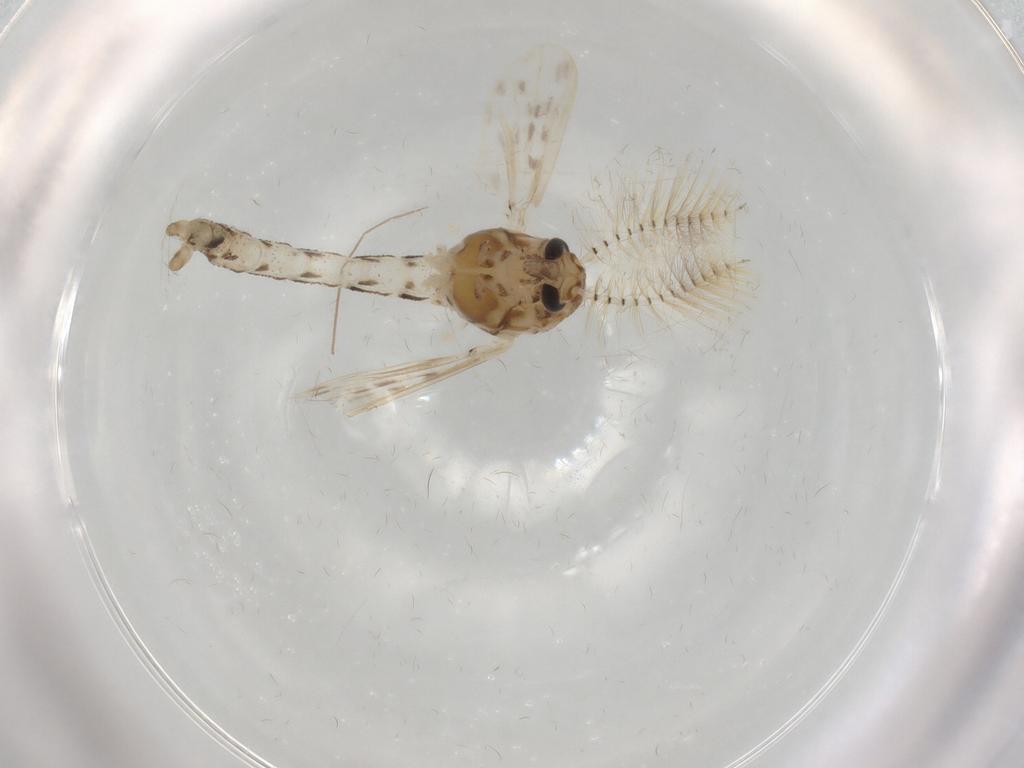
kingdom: Animalia
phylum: Arthropoda
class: Insecta
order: Diptera
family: Chaoboridae
